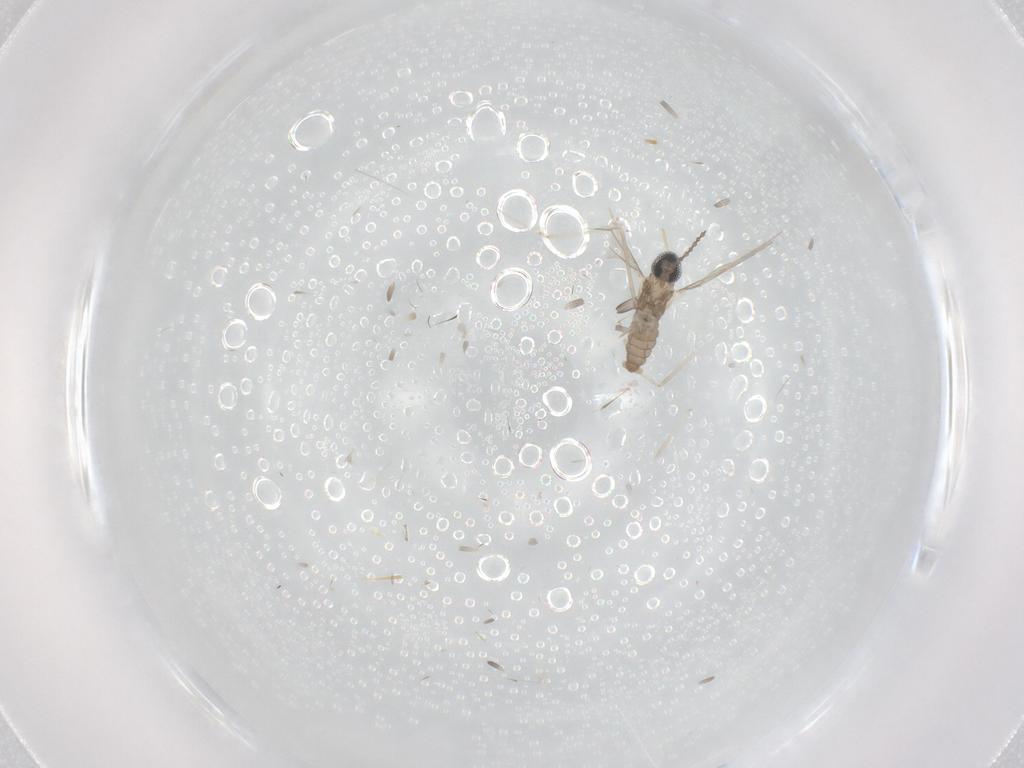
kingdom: Animalia
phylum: Arthropoda
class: Insecta
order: Diptera
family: Cecidomyiidae
